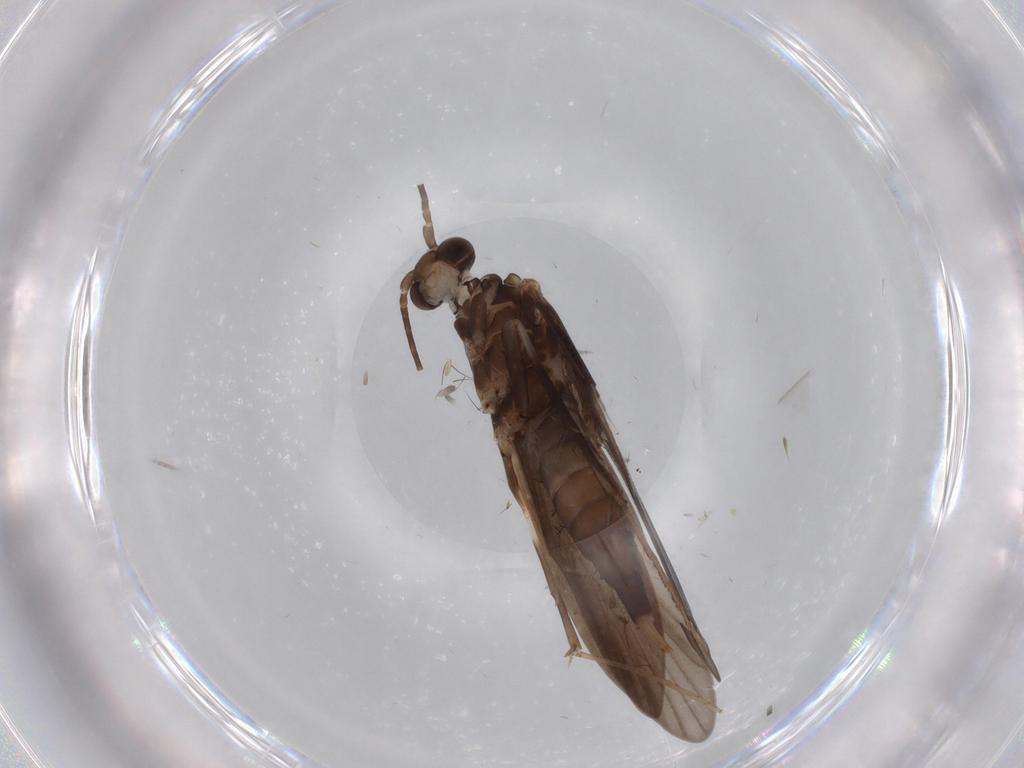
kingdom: Animalia
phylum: Arthropoda
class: Insecta
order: Trichoptera
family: Xiphocentronidae
